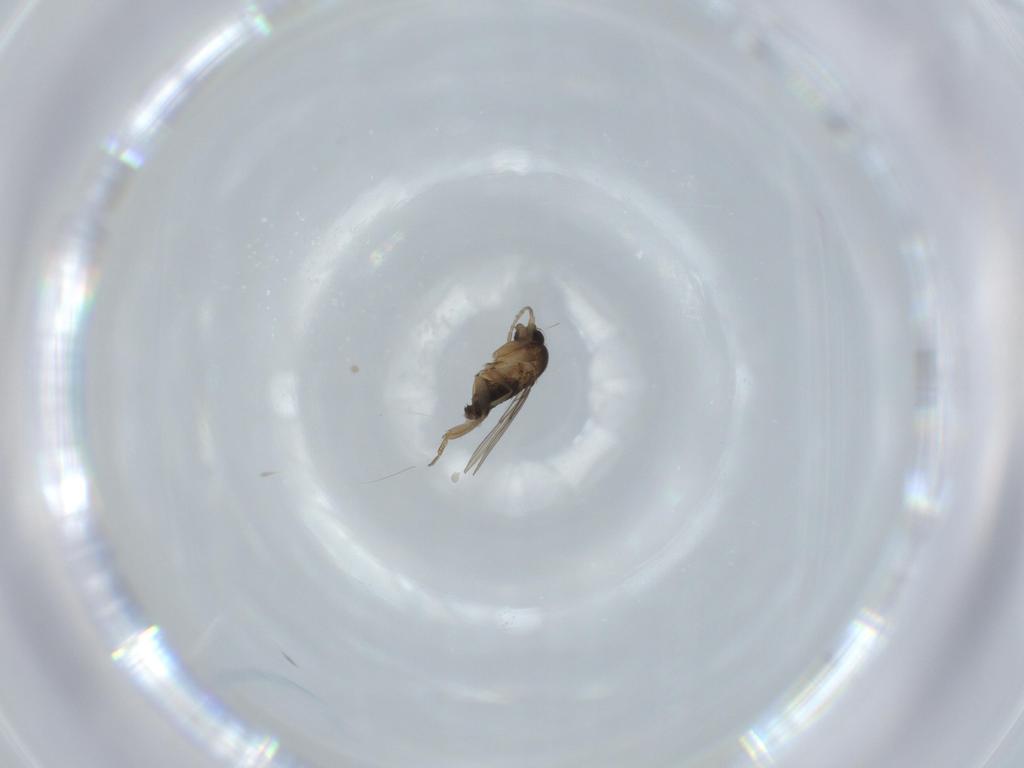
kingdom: Animalia
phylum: Arthropoda
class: Insecta
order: Diptera
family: Phoridae
